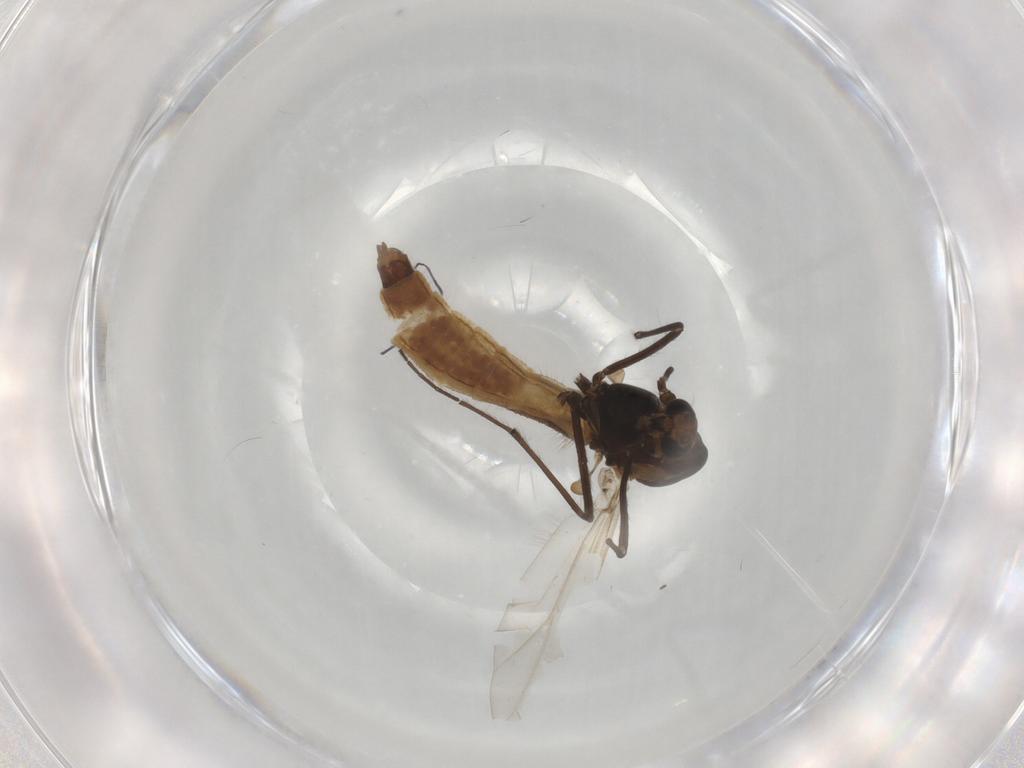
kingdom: Animalia
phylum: Arthropoda
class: Insecta
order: Diptera
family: Chironomidae
